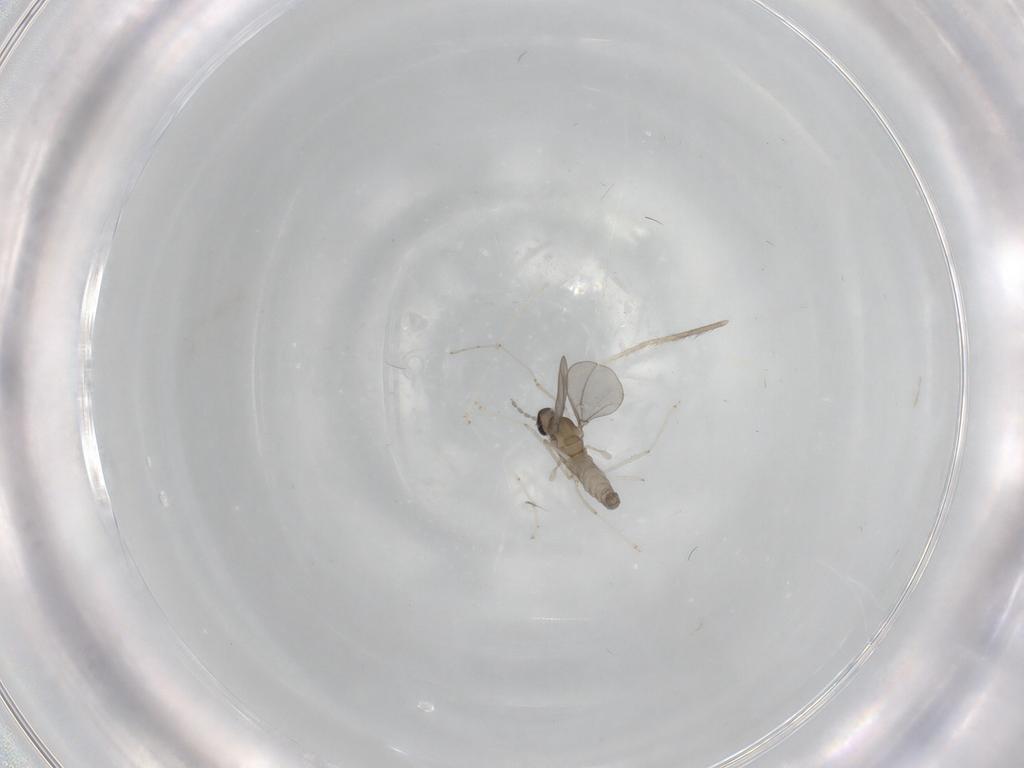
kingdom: Animalia
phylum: Arthropoda
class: Insecta
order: Diptera
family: Cecidomyiidae
